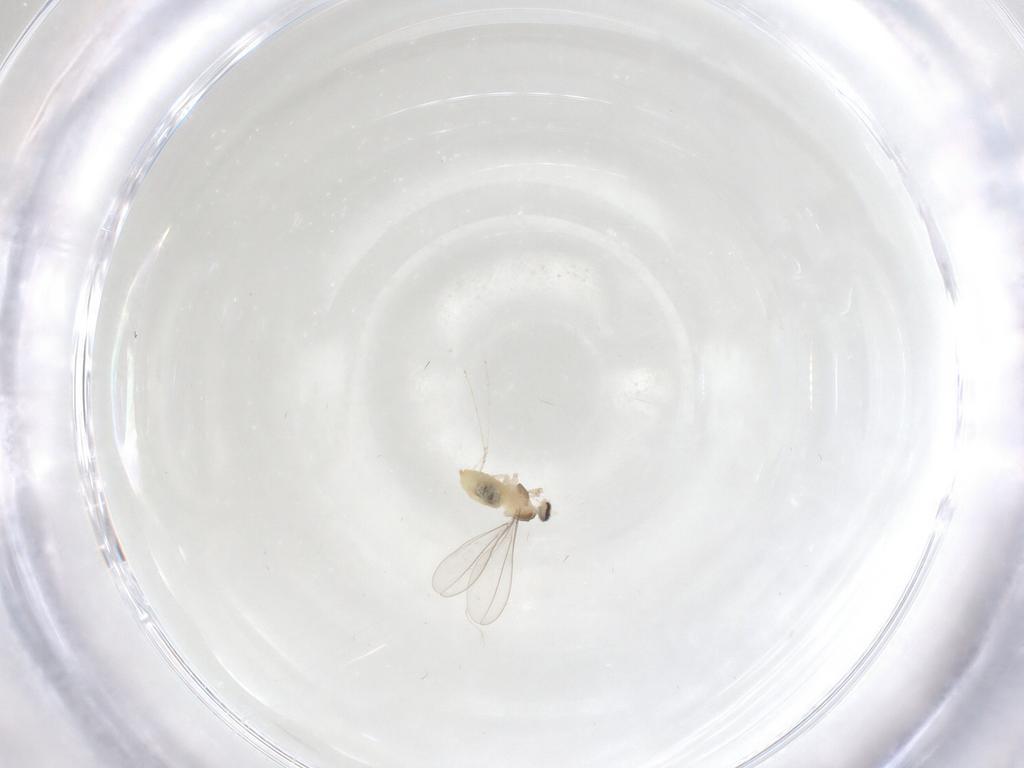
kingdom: Animalia
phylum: Arthropoda
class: Insecta
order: Diptera
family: Cecidomyiidae
